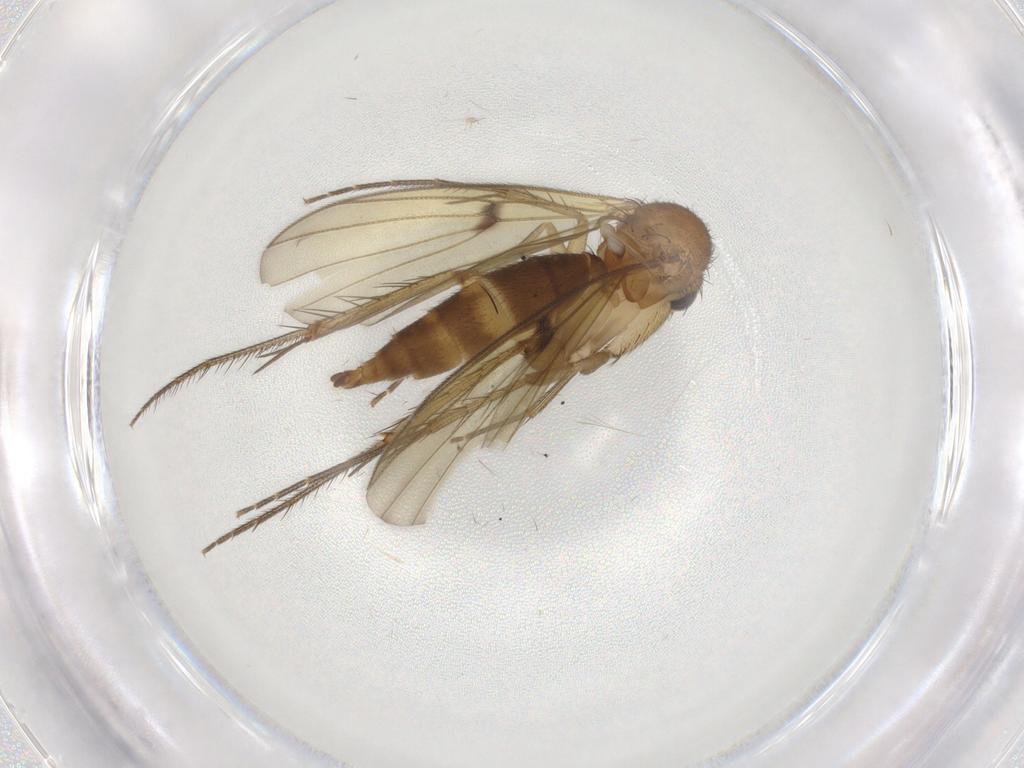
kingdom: Animalia
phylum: Arthropoda
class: Insecta
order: Diptera
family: Mycetophilidae
